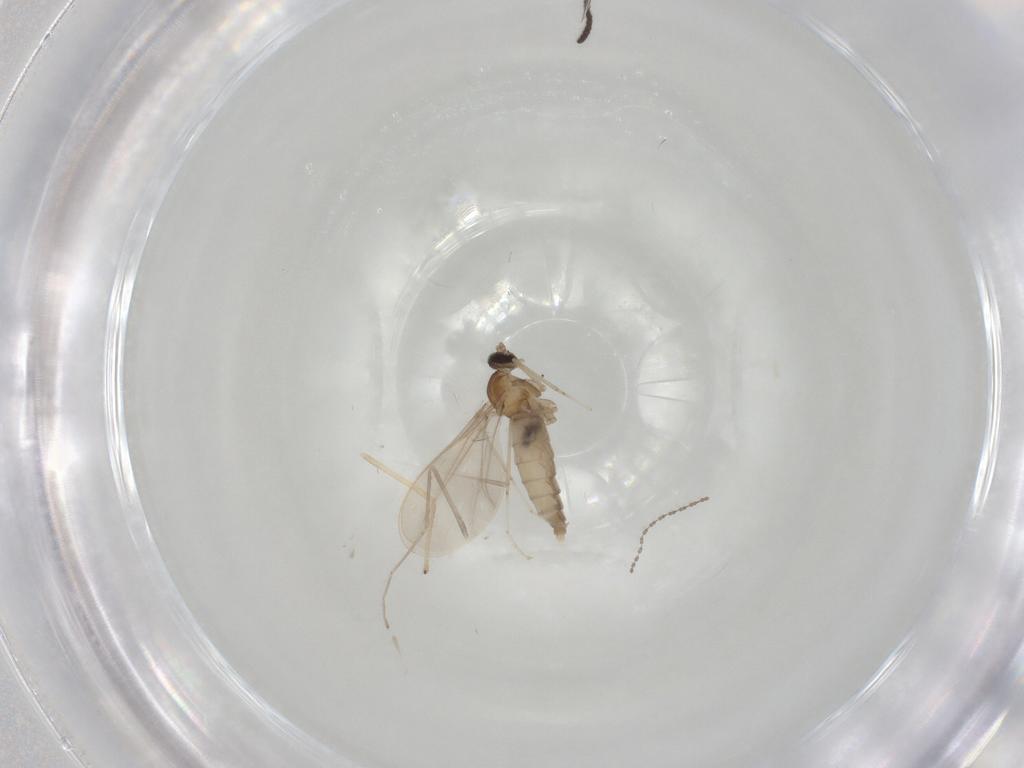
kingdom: Animalia
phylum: Arthropoda
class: Insecta
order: Diptera
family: Cecidomyiidae
